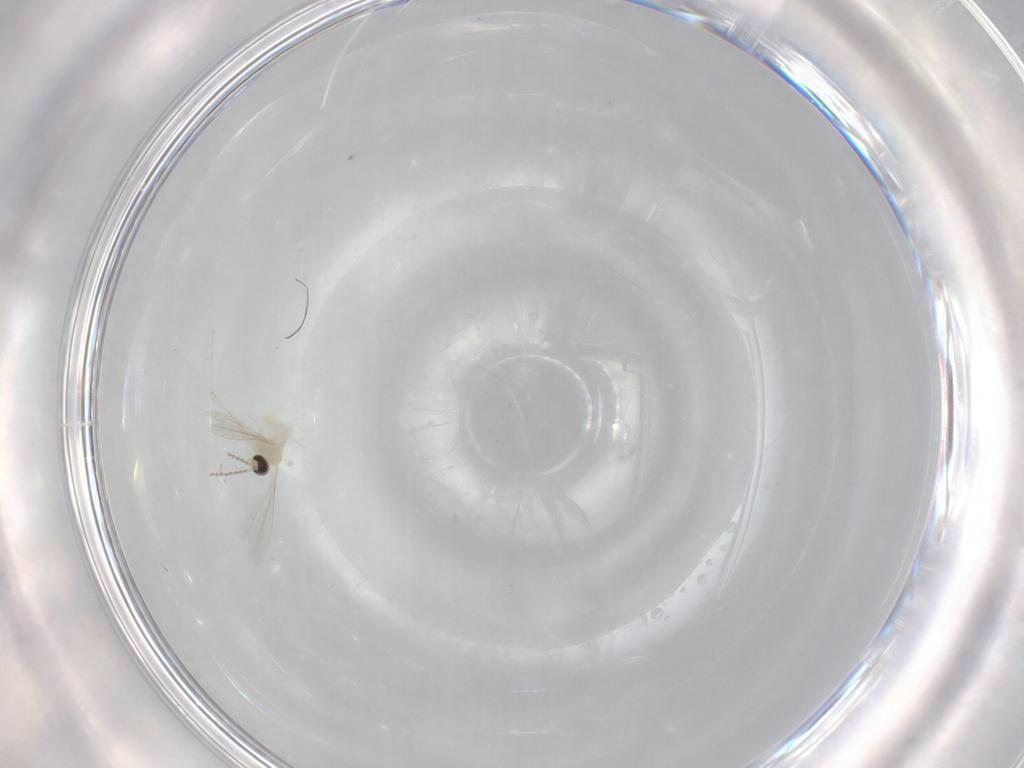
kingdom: Animalia
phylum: Arthropoda
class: Insecta
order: Diptera
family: Cecidomyiidae
